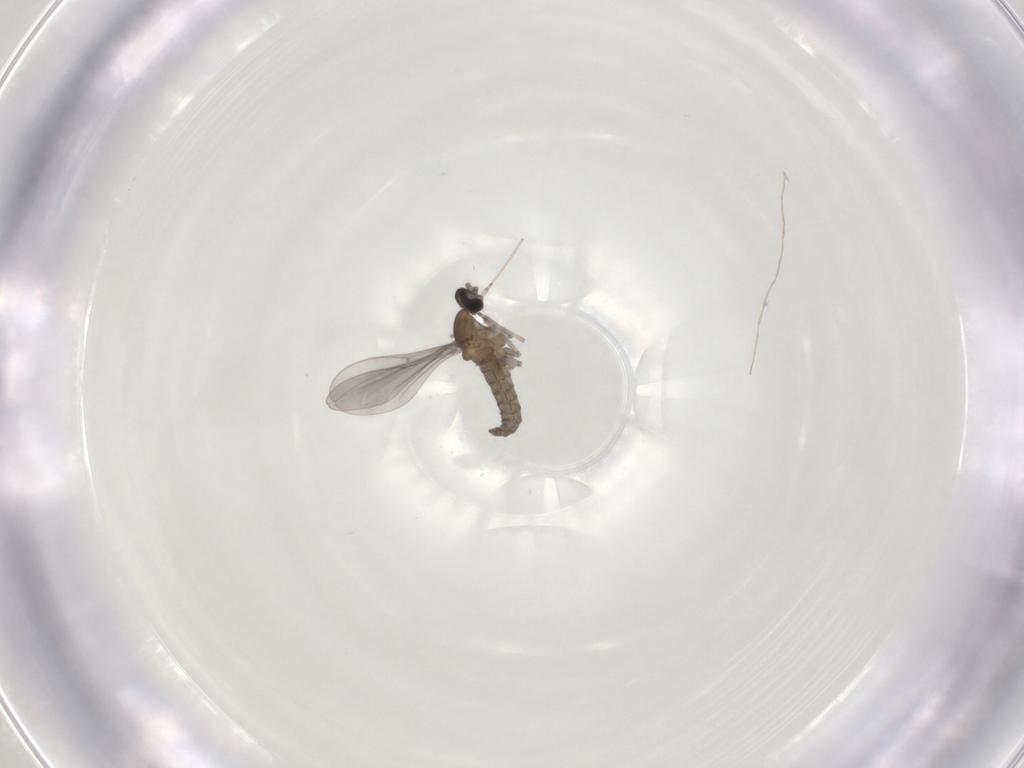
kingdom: Animalia
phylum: Arthropoda
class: Insecta
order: Diptera
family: Chironomidae
